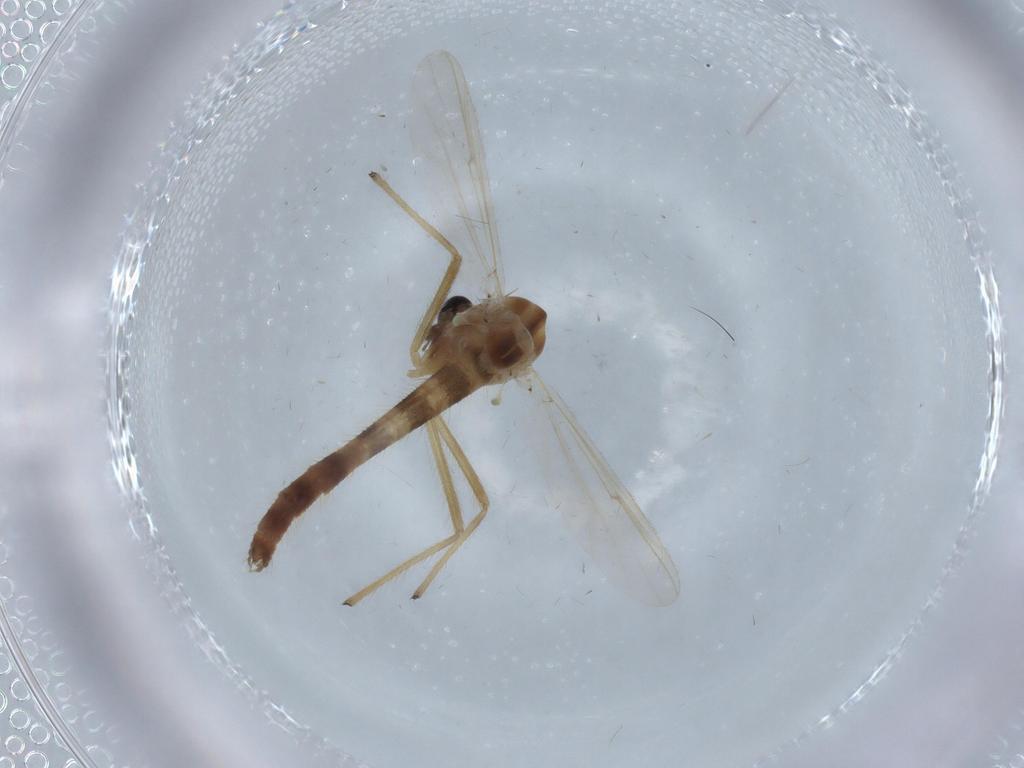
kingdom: Animalia
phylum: Arthropoda
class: Insecta
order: Diptera
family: Chironomidae
